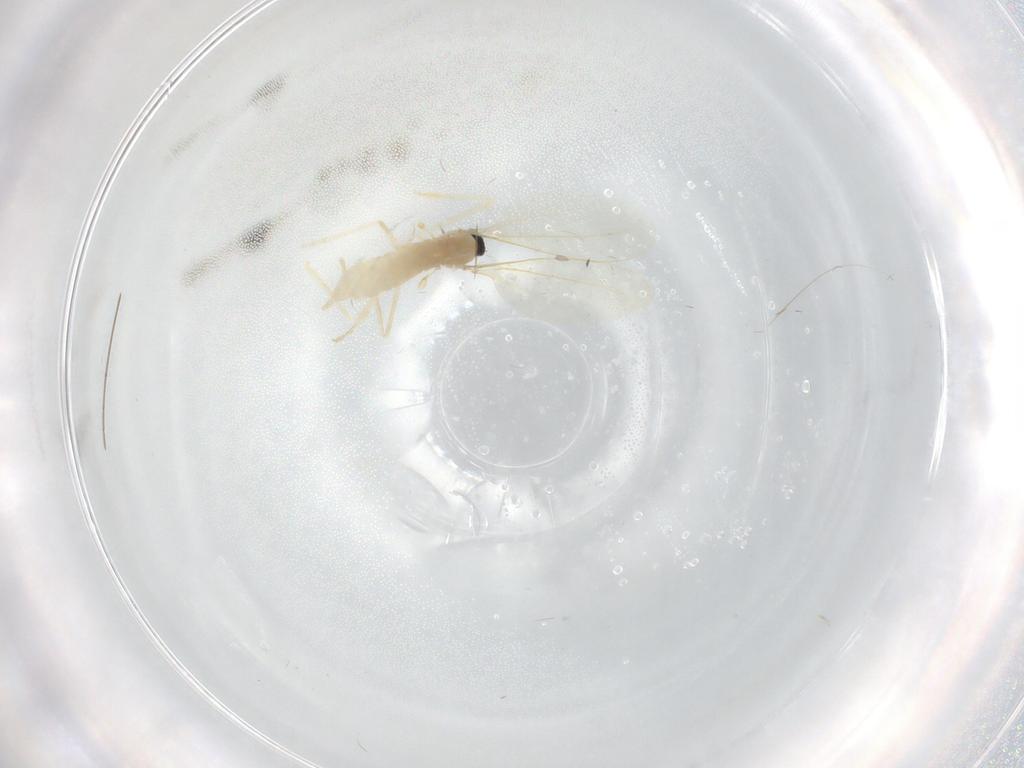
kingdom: Animalia
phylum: Arthropoda
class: Insecta
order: Diptera
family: Cecidomyiidae
